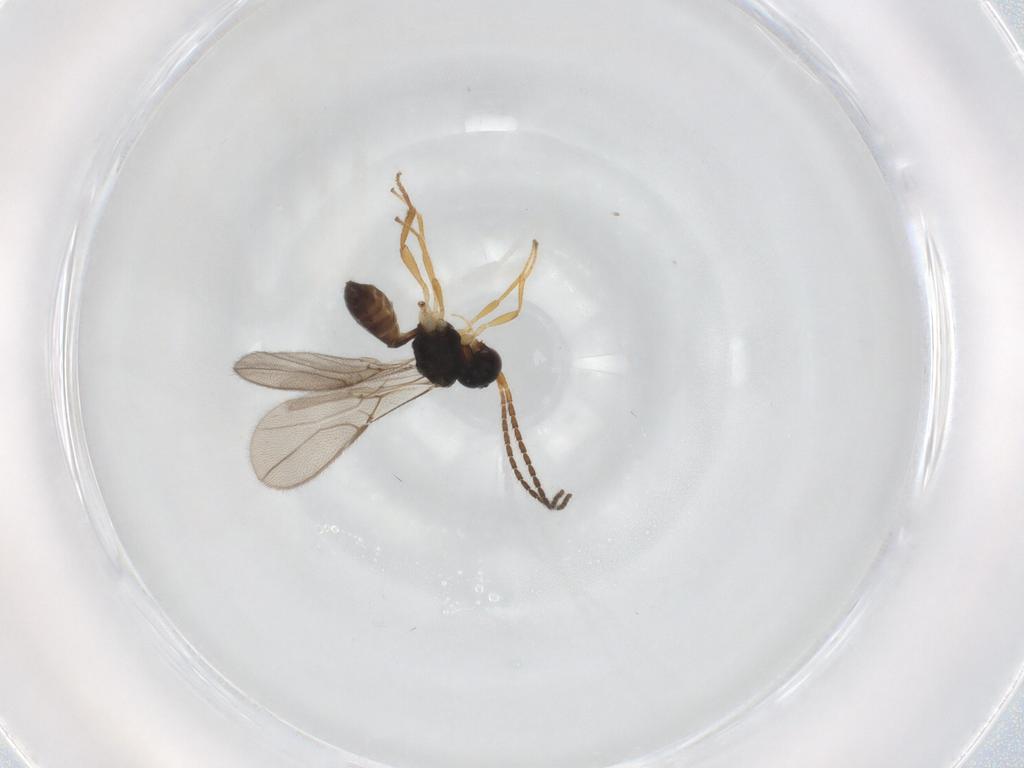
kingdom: Animalia
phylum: Arthropoda
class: Insecta
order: Hymenoptera
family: Braconidae
